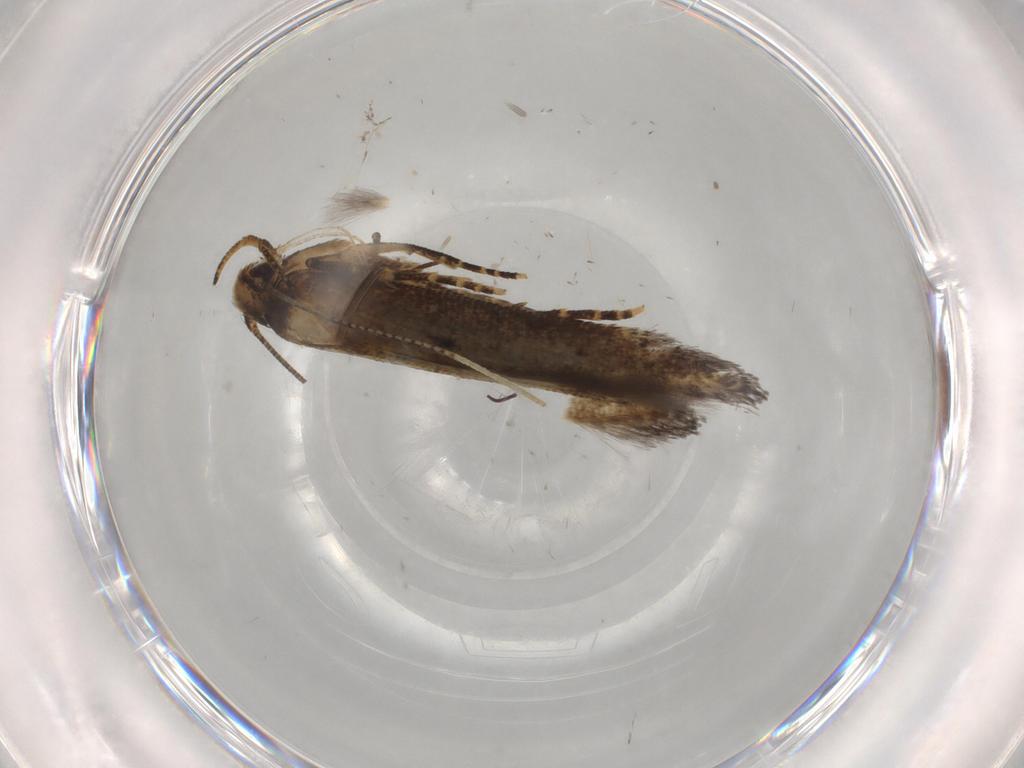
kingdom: Animalia
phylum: Arthropoda
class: Insecta
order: Lepidoptera
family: Cosmopterigidae
